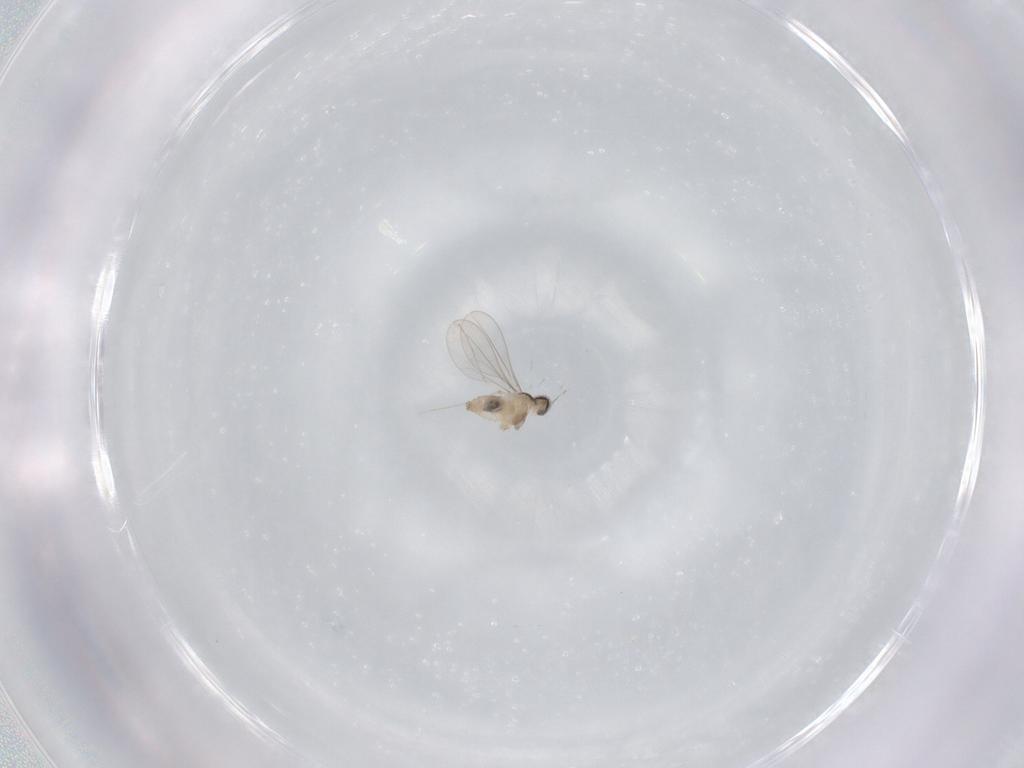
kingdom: Animalia
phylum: Arthropoda
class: Insecta
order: Diptera
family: Cecidomyiidae
